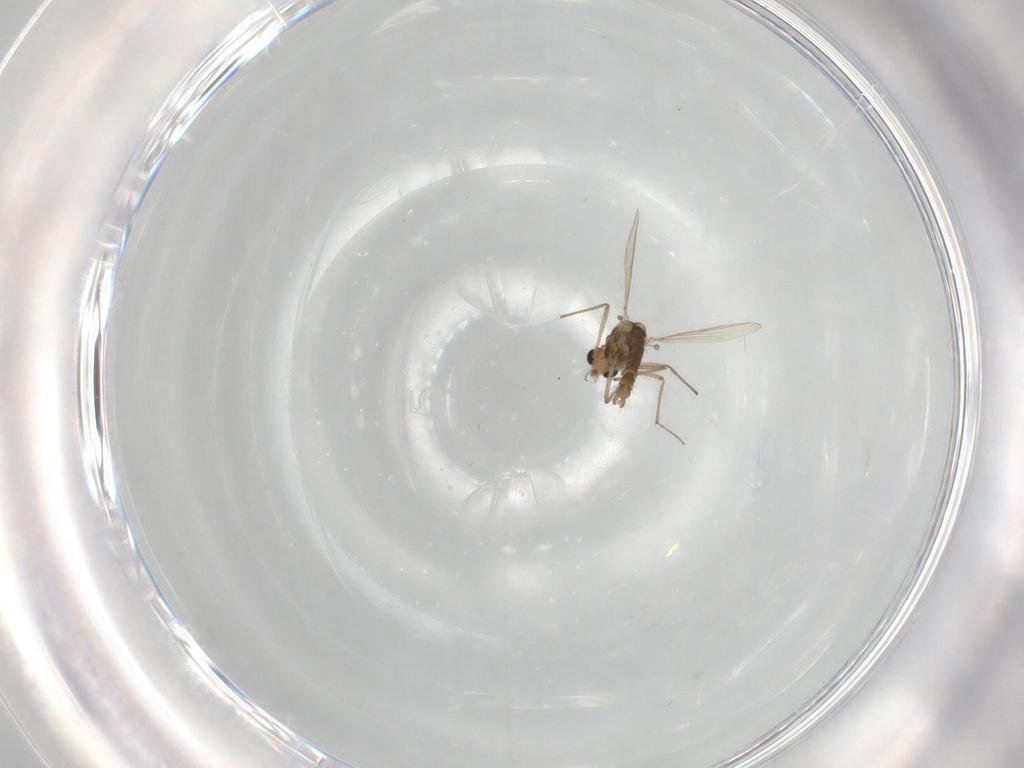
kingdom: Animalia
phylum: Arthropoda
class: Insecta
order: Diptera
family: Chironomidae
